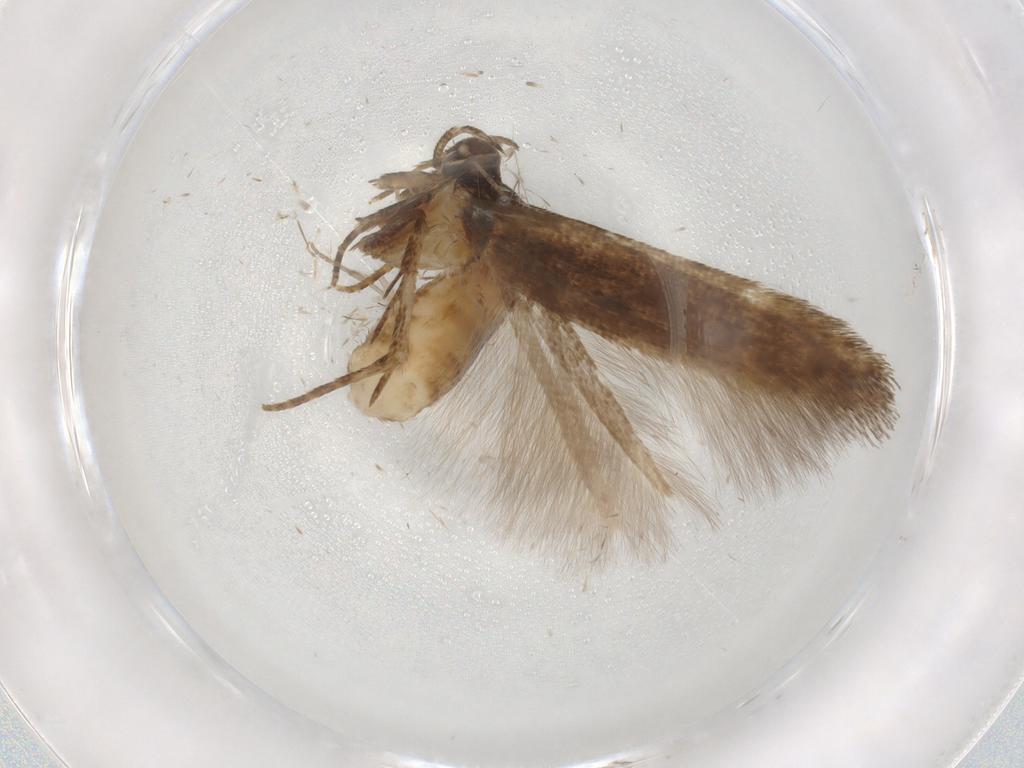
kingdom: Animalia
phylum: Arthropoda
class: Insecta
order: Lepidoptera
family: Cosmopterigidae
